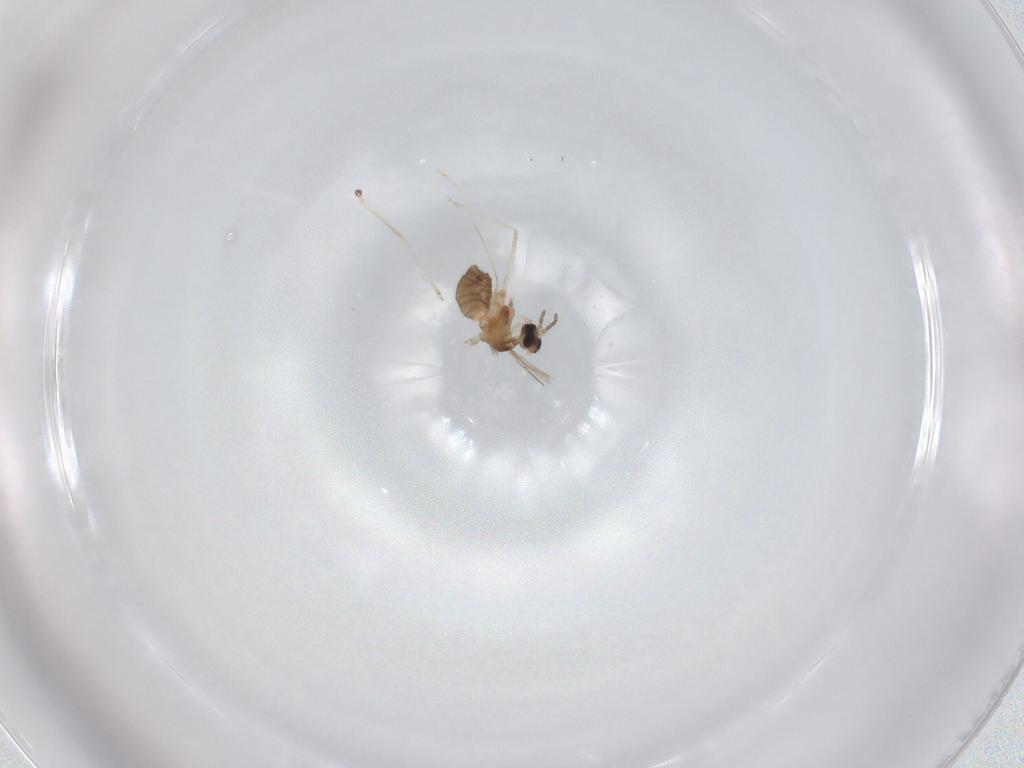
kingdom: Animalia
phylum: Arthropoda
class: Insecta
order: Diptera
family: Cecidomyiidae
